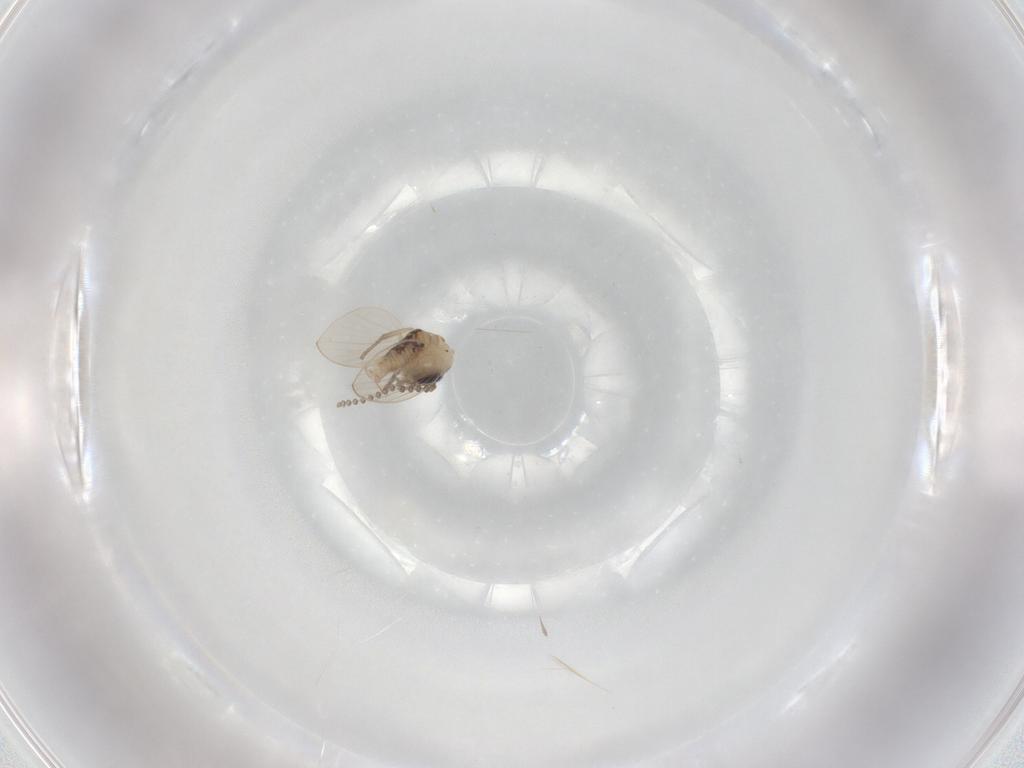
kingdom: Animalia
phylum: Arthropoda
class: Insecta
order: Diptera
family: Psychodidae
